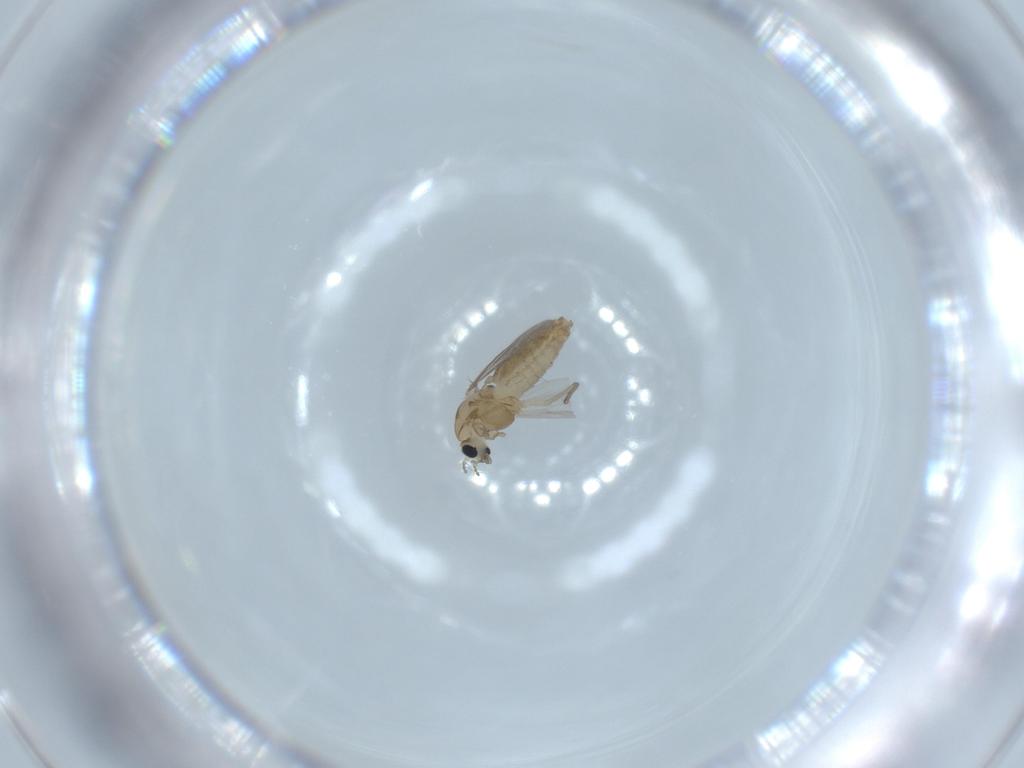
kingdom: Animalia
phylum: Arthropoda
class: Insecta
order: Diptera
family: Chironomidae
